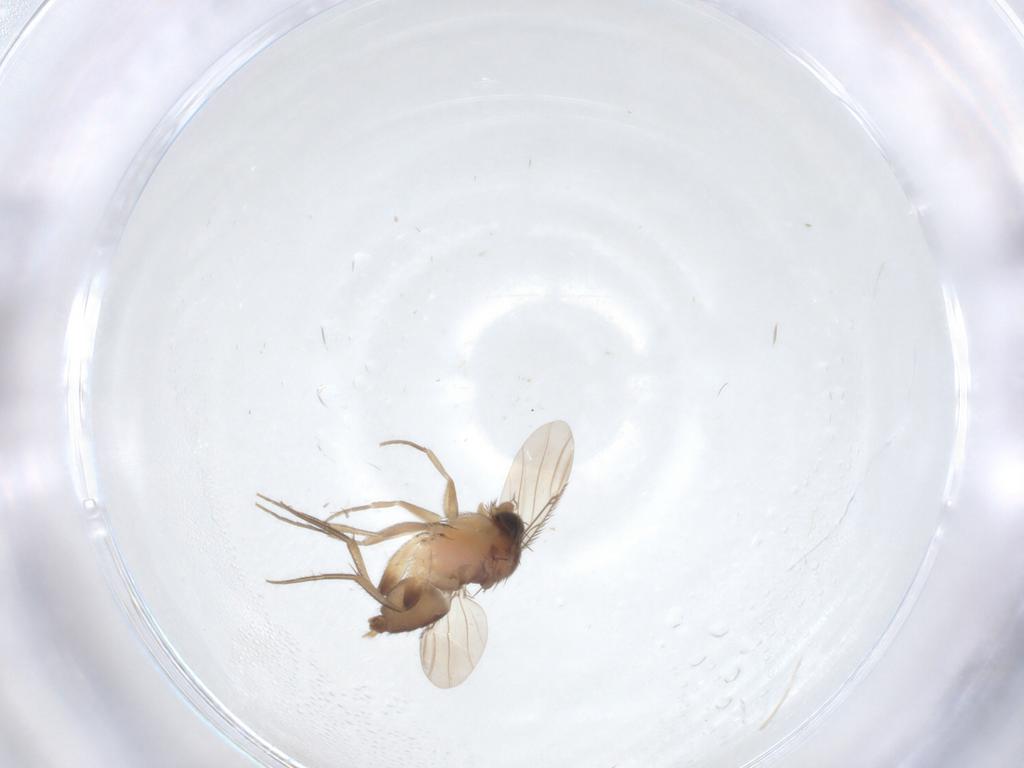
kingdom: Animalia
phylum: Arthropoda
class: Insecta
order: Diptera
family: Phoridae
